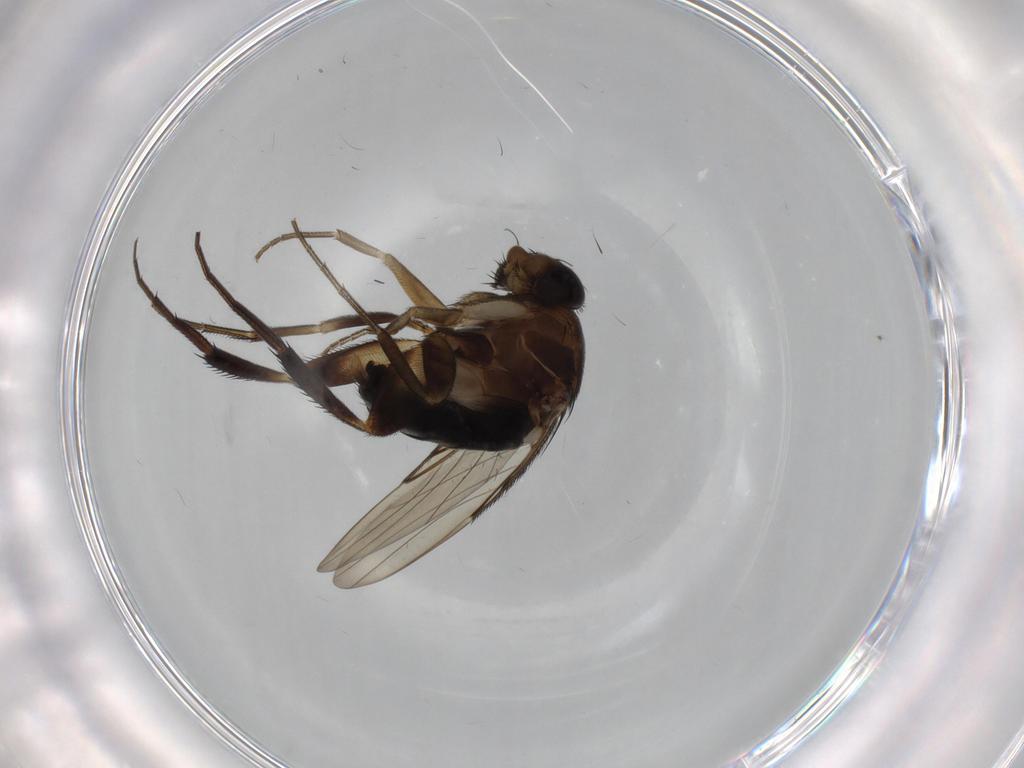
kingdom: Animalia
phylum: Arthropoda
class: Insecta
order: Diptera
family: Phoridae
